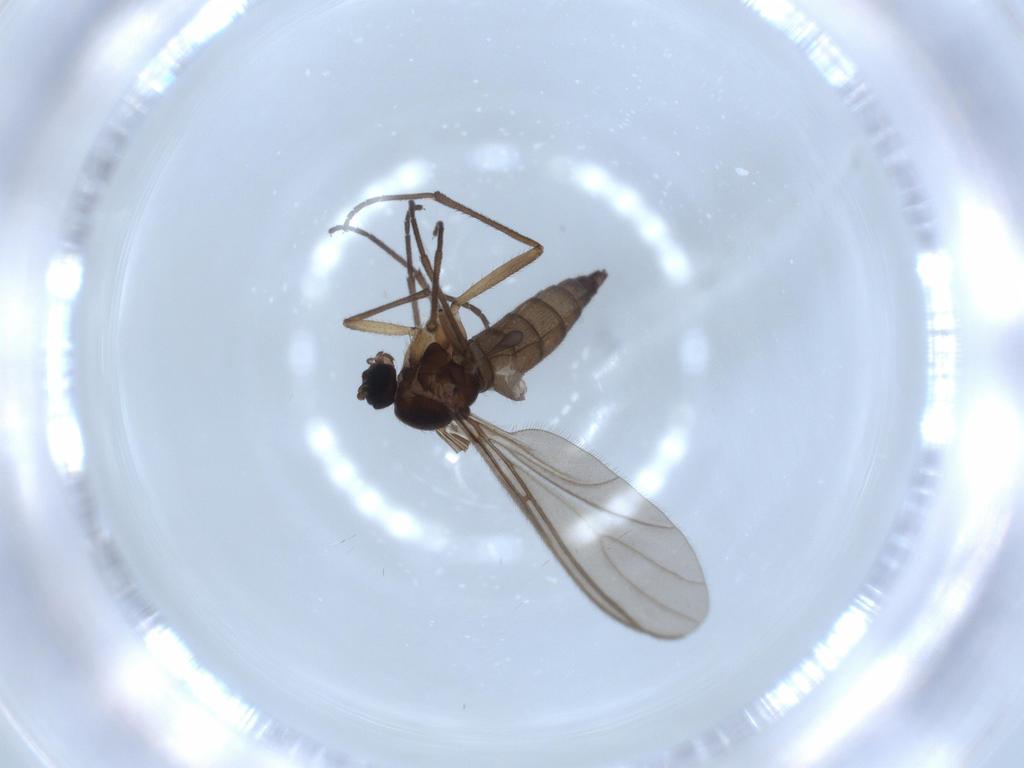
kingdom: Animalia
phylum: Arthropoda
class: Insecta
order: Diptera
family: Sciaridae
